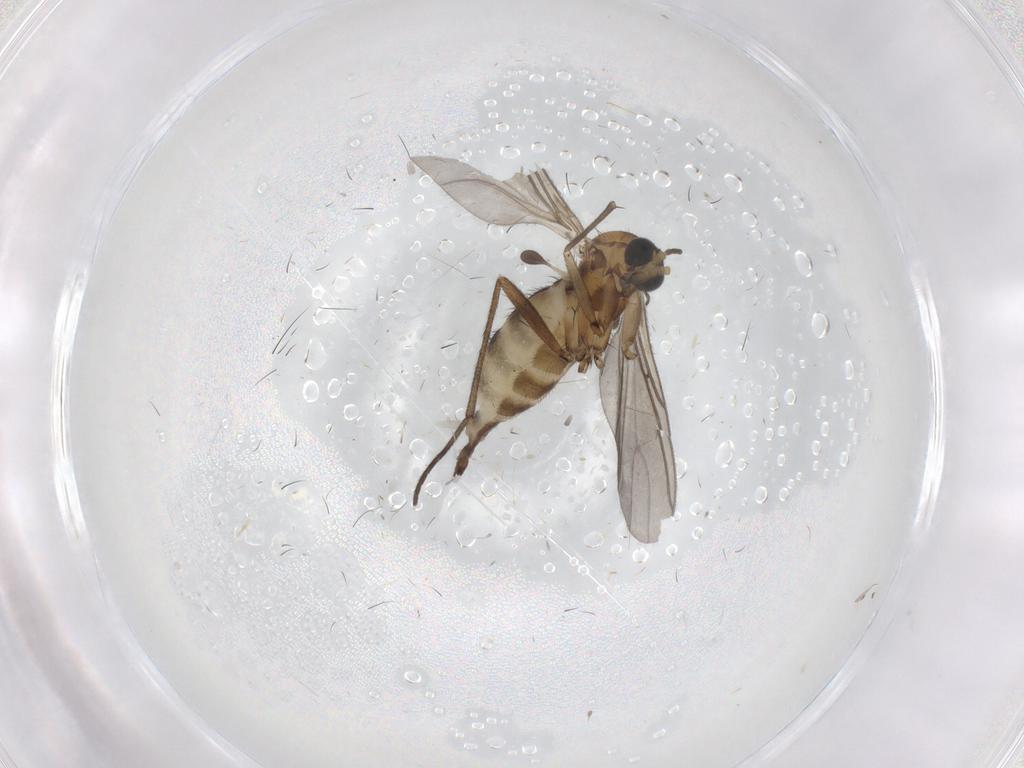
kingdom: Animalia
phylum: Arthropoda
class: Insecta
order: Diptera
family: Sciaridae
